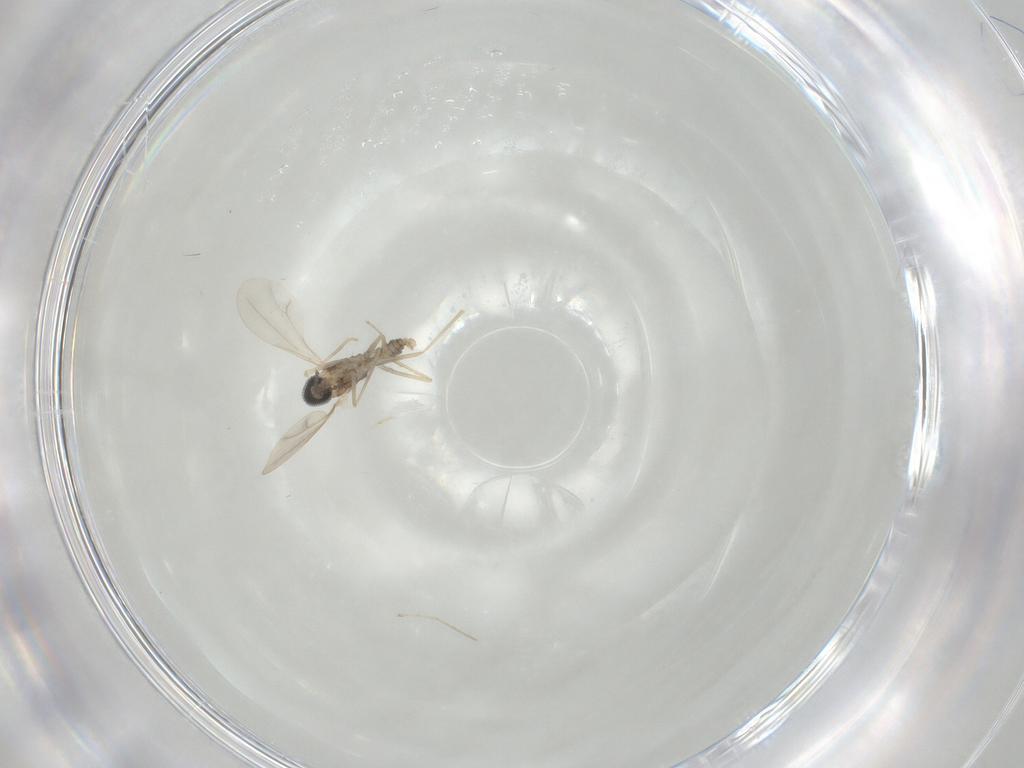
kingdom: Animalia
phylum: Arthropoda
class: Insecta
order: Diptera
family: Cecidomyiidae
